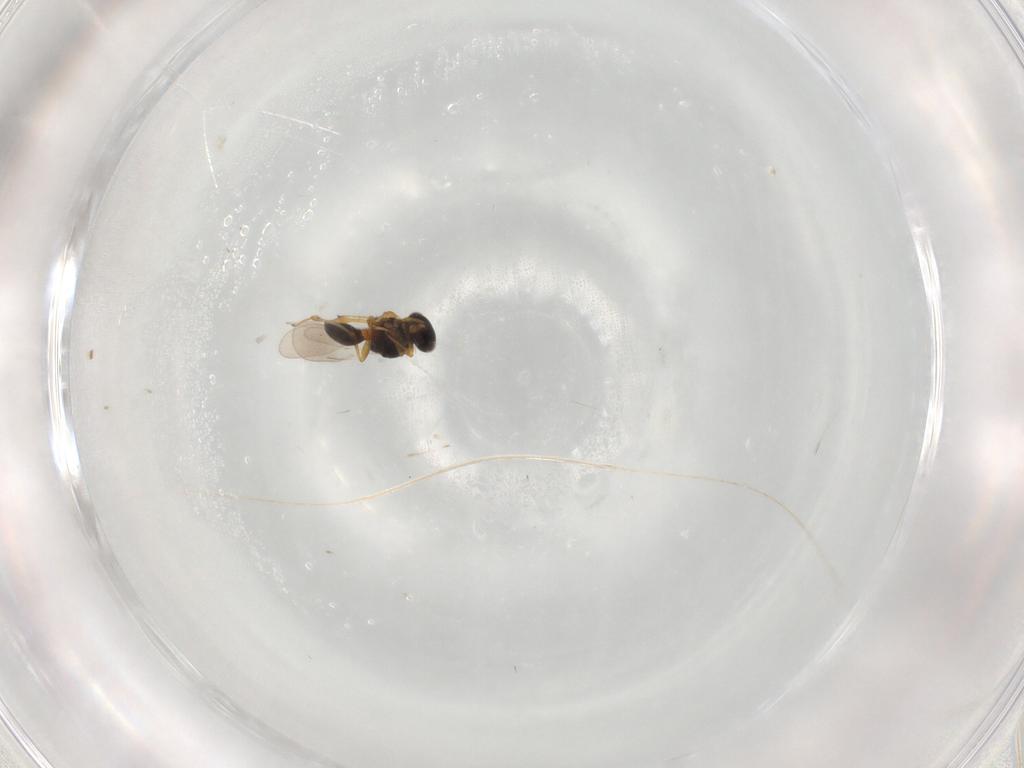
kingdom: Animalia
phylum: Arthropoda
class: Insecta
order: Hymenoptera
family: Platygastridae
